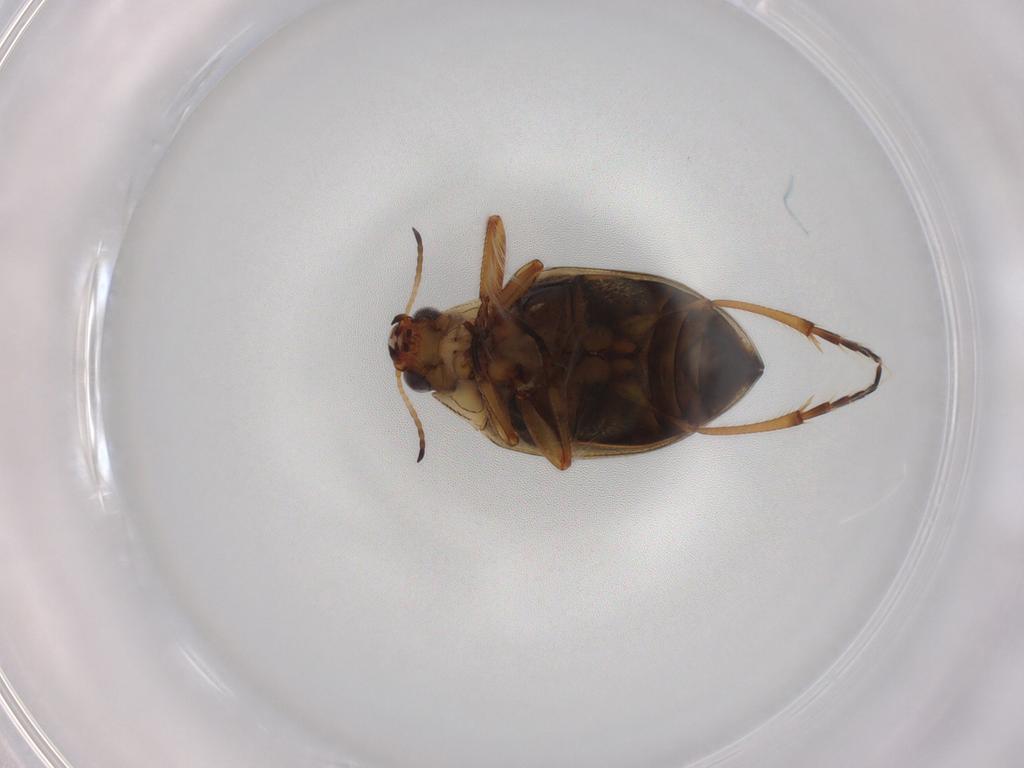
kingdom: Animalia
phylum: Arthropoda
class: Insecta
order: Coleoptera
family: Haliplidae
